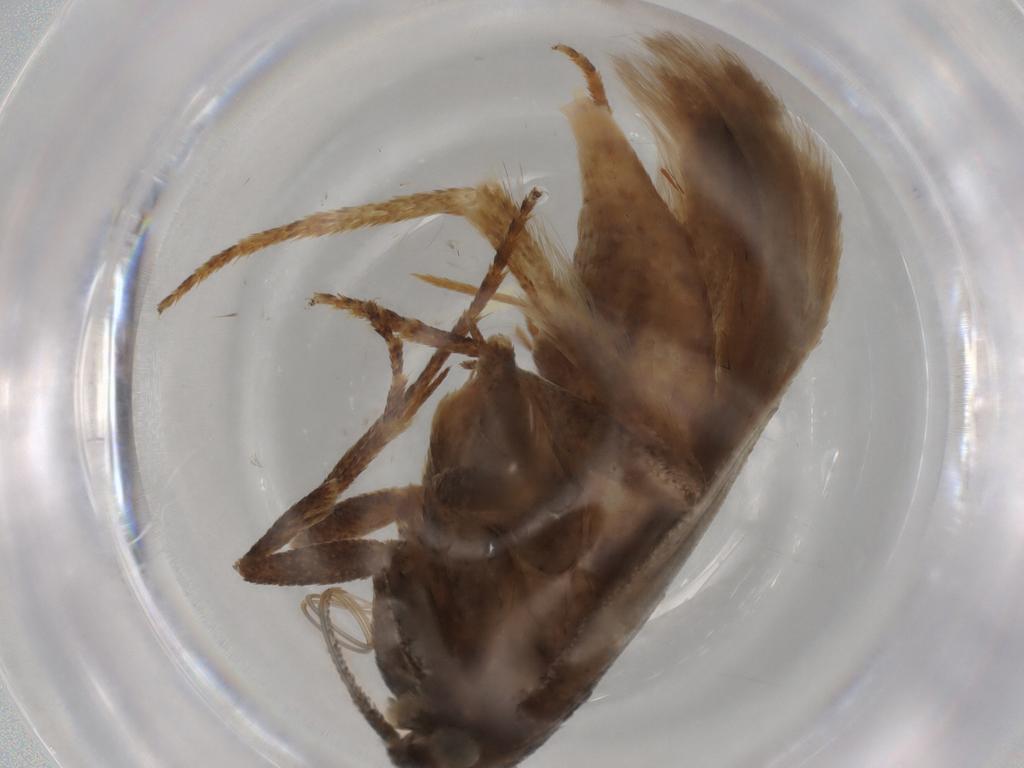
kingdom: Animalia
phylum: Arthropoda
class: Insecta
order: Lepidoptera
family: Erebidae
